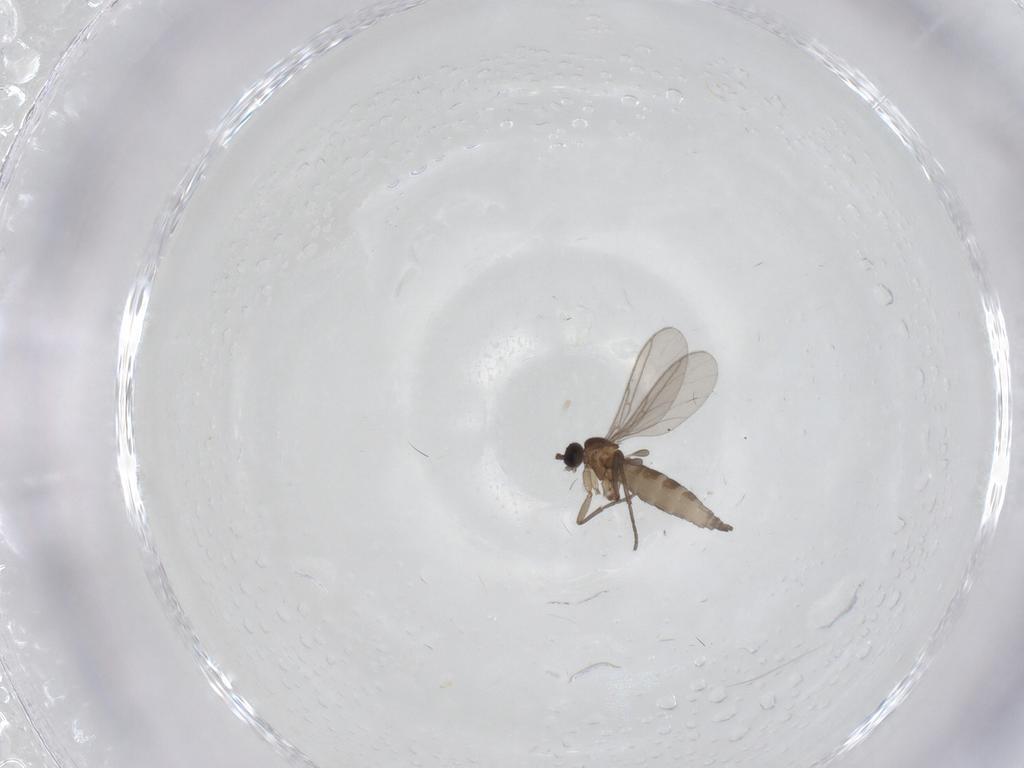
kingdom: Animalia
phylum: Arthropoda
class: Insecta
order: Diptera
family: Sciaridae
